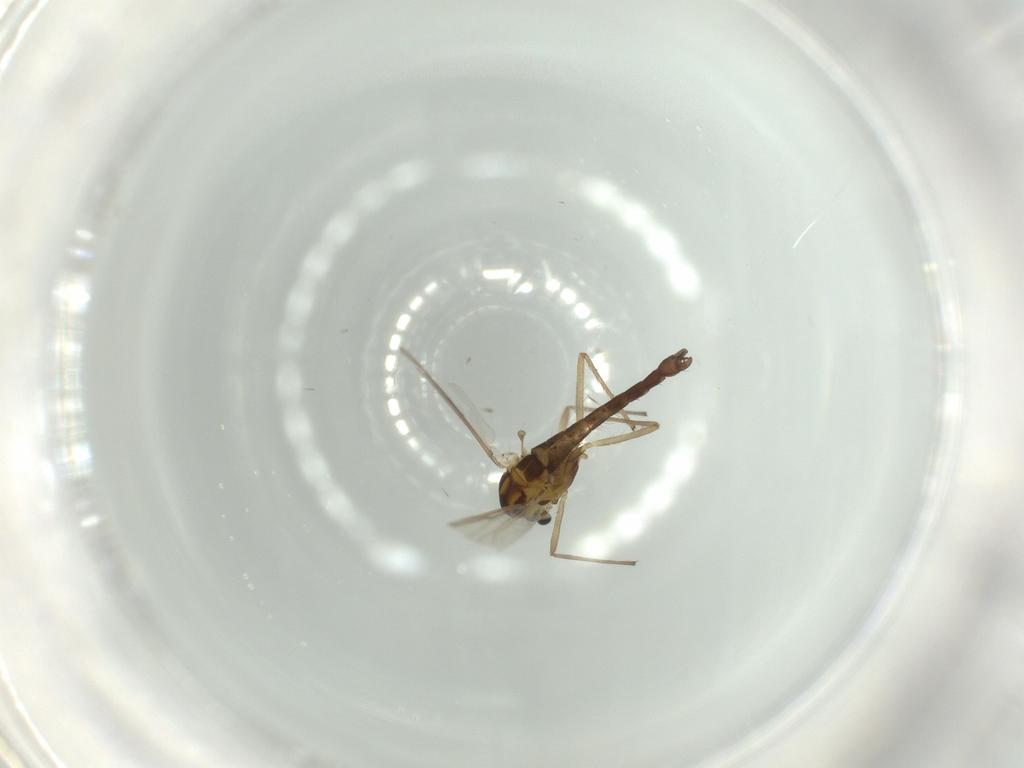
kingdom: Animalia
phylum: Arthropoda
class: Insecta
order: Diptera
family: Chironomidae
